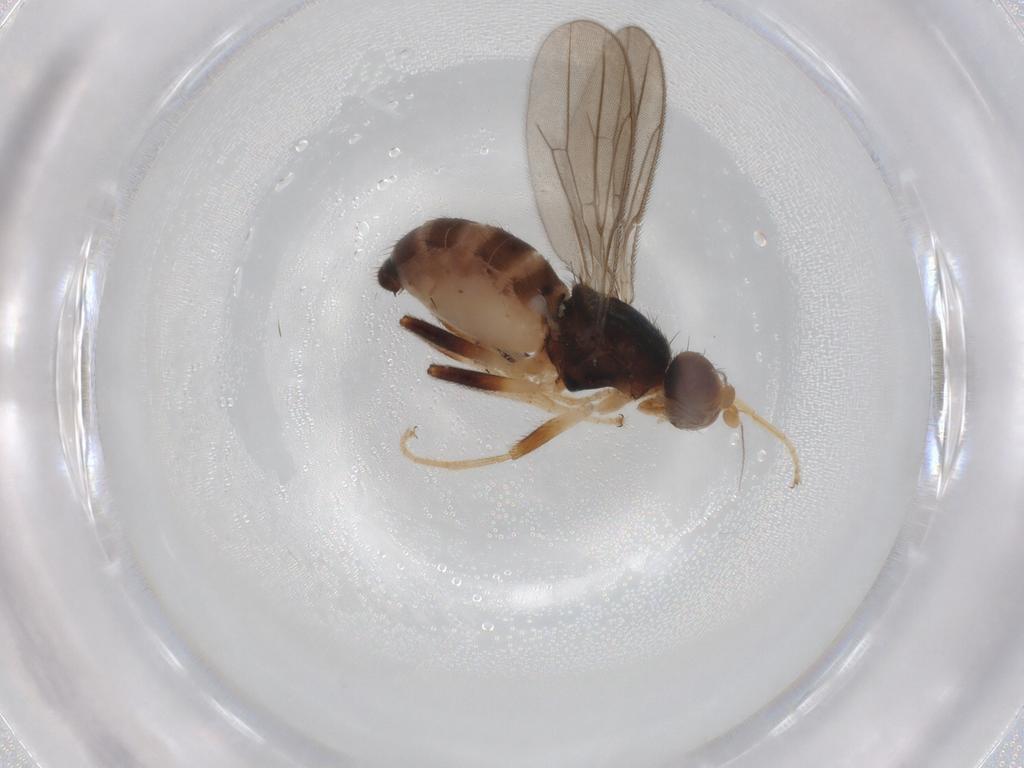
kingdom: Animalia
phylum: Arthropoda
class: Insecta
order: Diptera
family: Chloropidae
